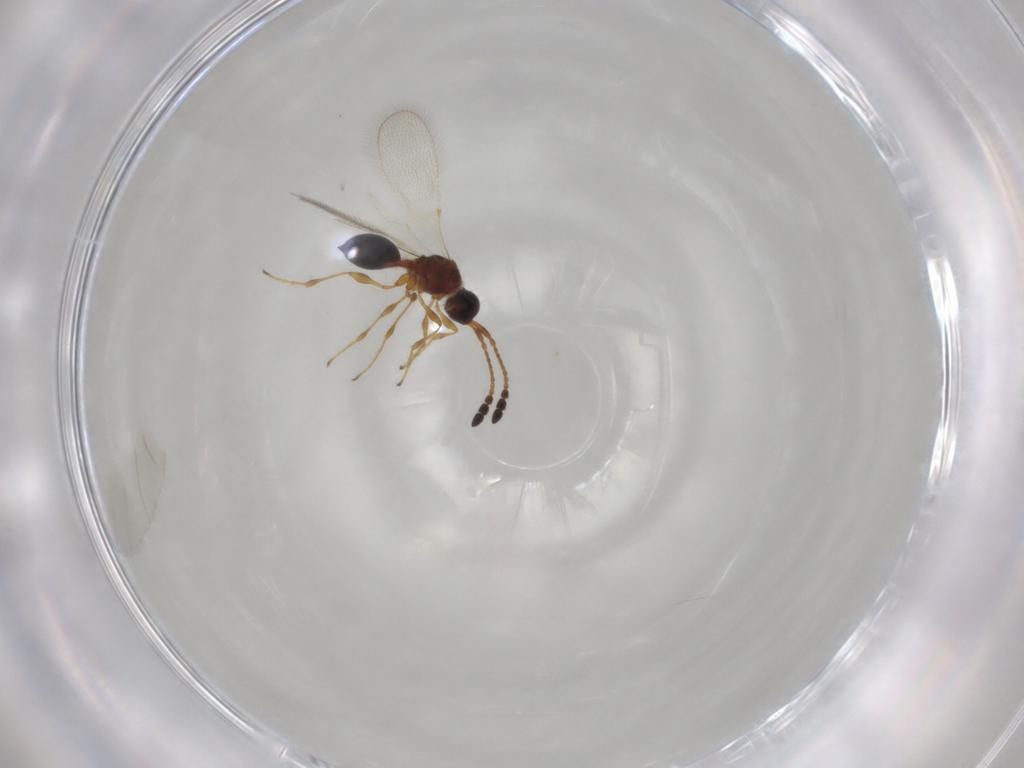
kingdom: Animalia
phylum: Arthropoda
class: Insecta
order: Hymenoptera
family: Diapriidae
